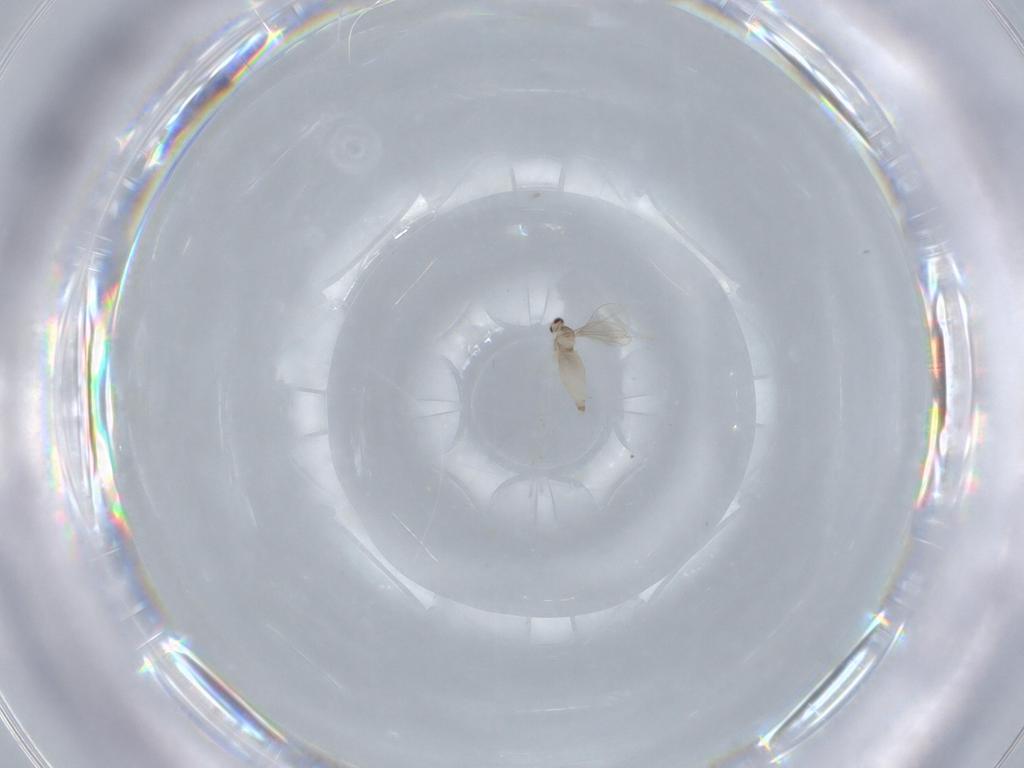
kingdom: Animalia
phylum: Arthropoda
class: Insecta
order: Diptera
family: Cecidomyiidae
